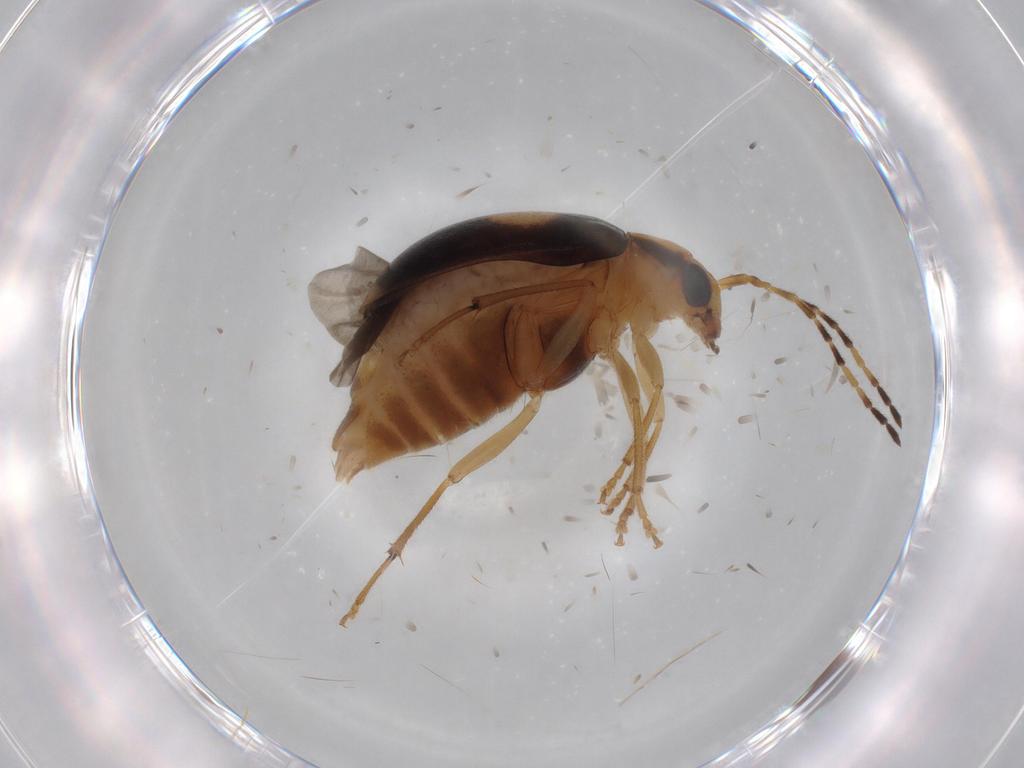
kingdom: Animalia
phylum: Arthropoda
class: Insecta
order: Coleoptera
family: Chrysomelidae
